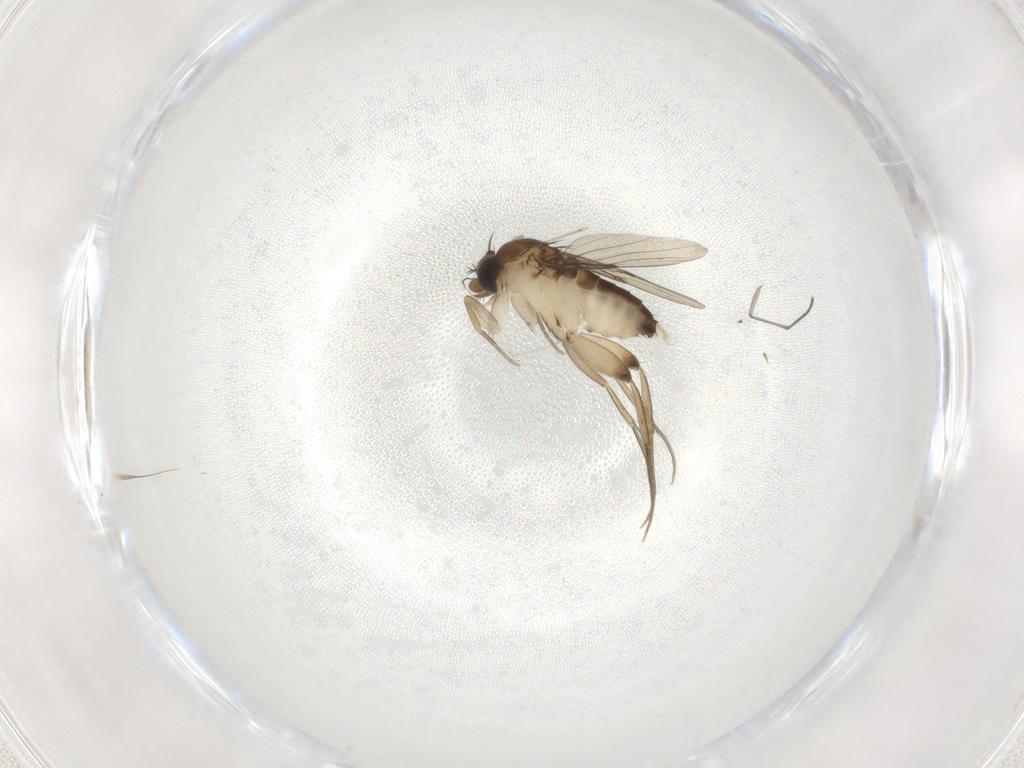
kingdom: Animalia
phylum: Arthropoda
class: Insecta
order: Diptera
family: Phoridae
